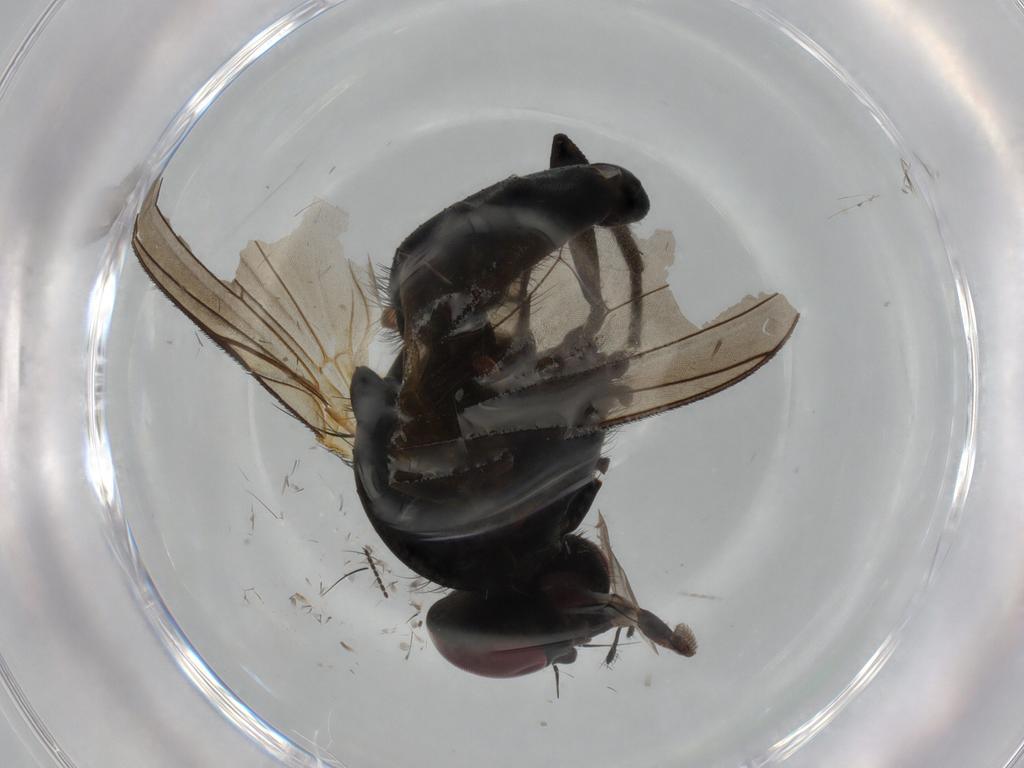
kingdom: Animalia
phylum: Arthropoda
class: Insecta
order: Diptera
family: Fannia
